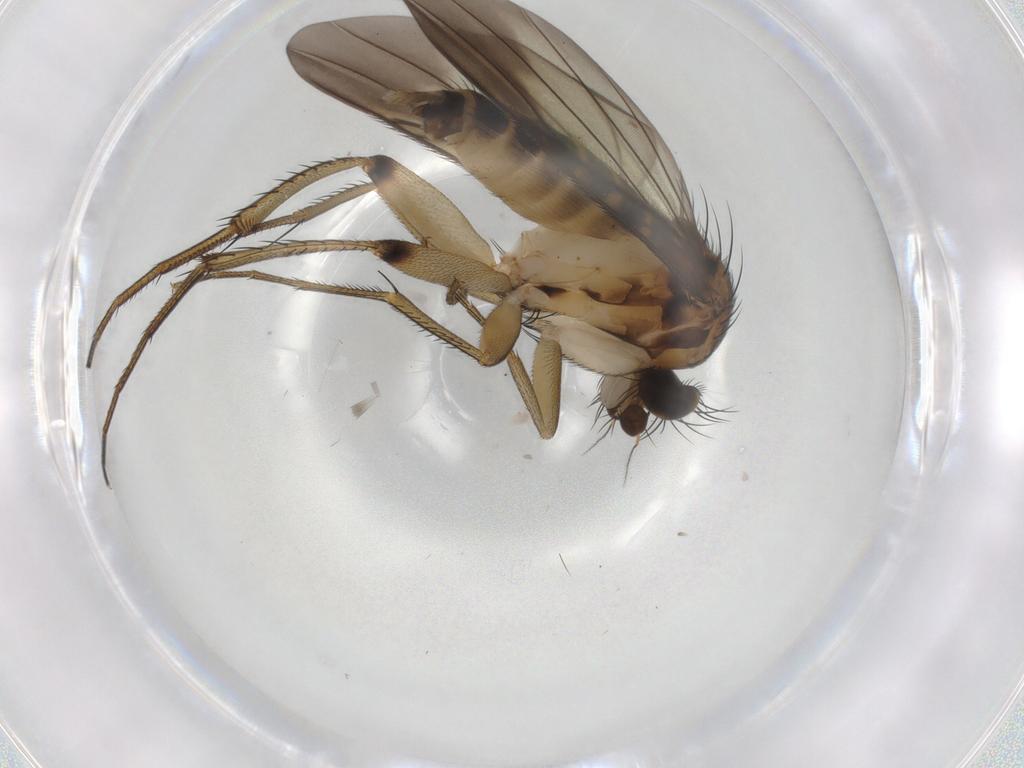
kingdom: Animalia
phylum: Arthropoda
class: Insecta
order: Diptera
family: Phoridae
